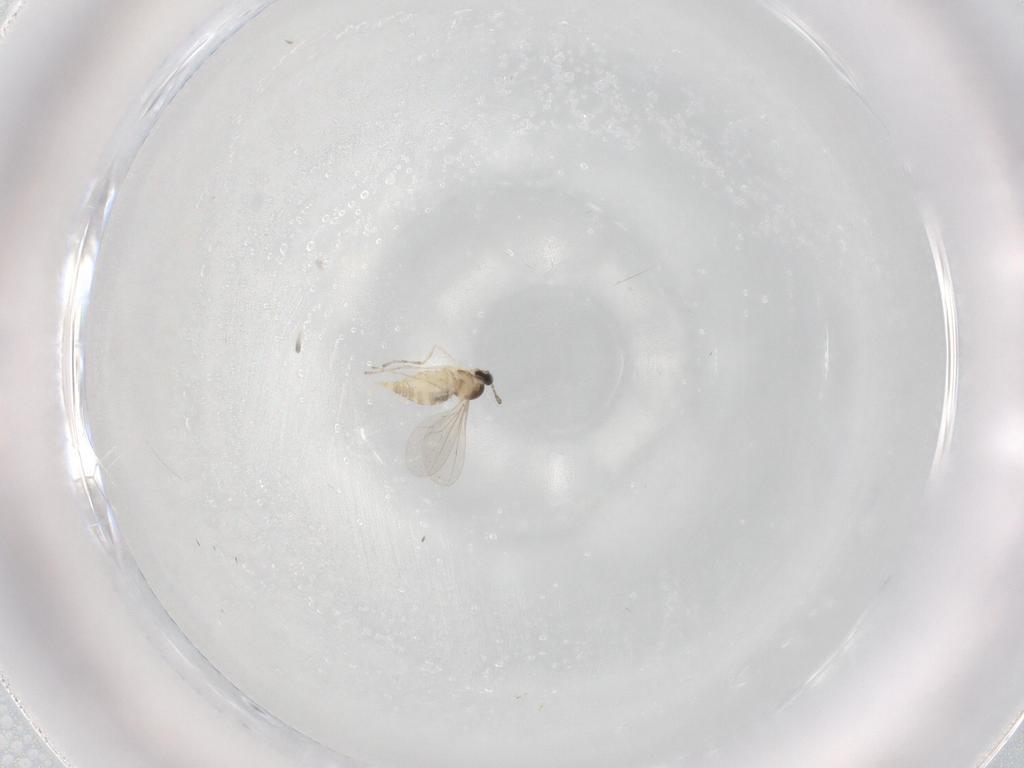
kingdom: Animalia
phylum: Arthropoda
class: Insecta
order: Diptera
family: Cecidomyiidae
